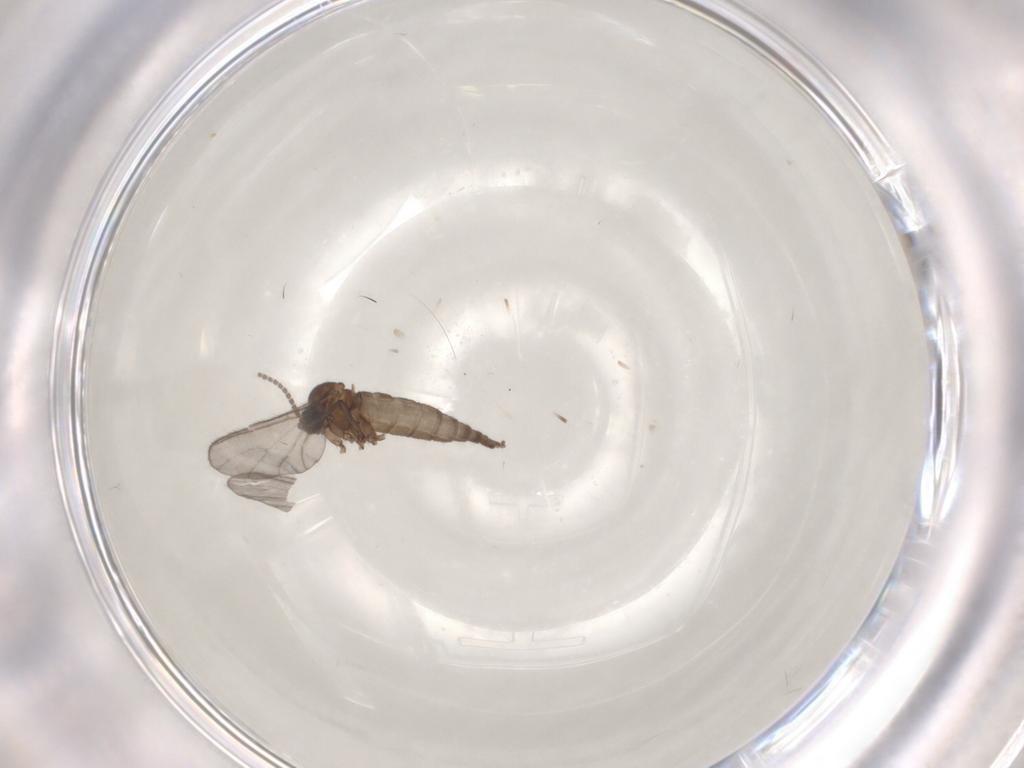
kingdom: Animalia
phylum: Arthropoda
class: Insecta
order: Diptera
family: Sciaridae
